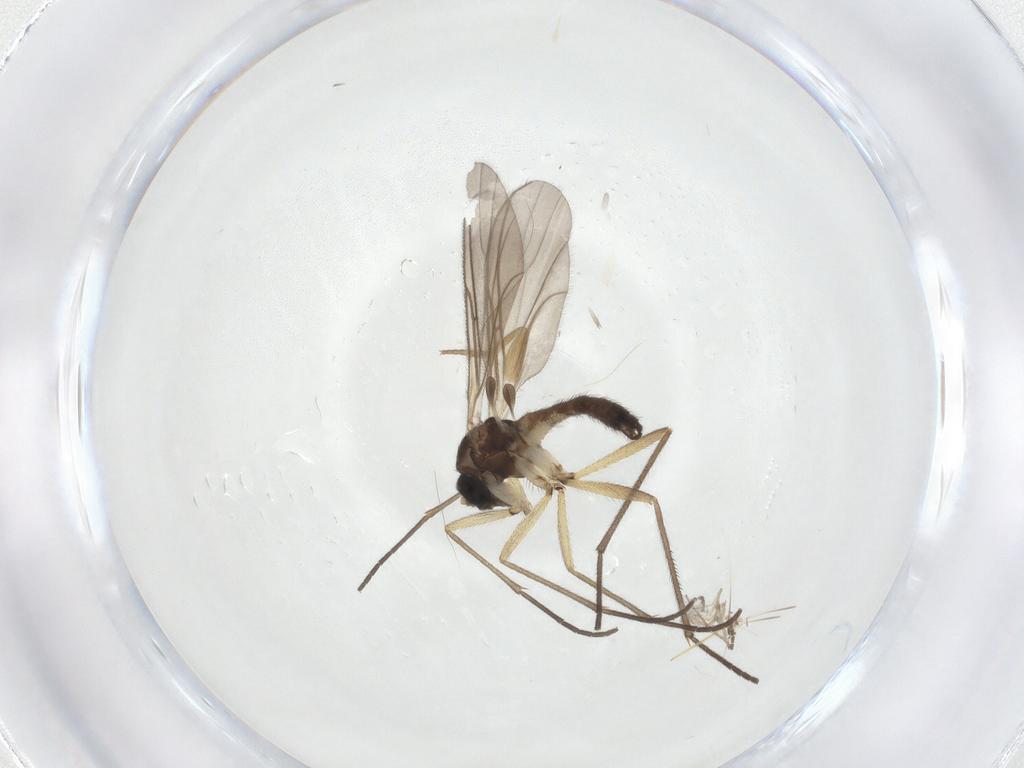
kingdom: Animalia
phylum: Arthropoda
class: Insecta
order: Diptera
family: Sciaridae
